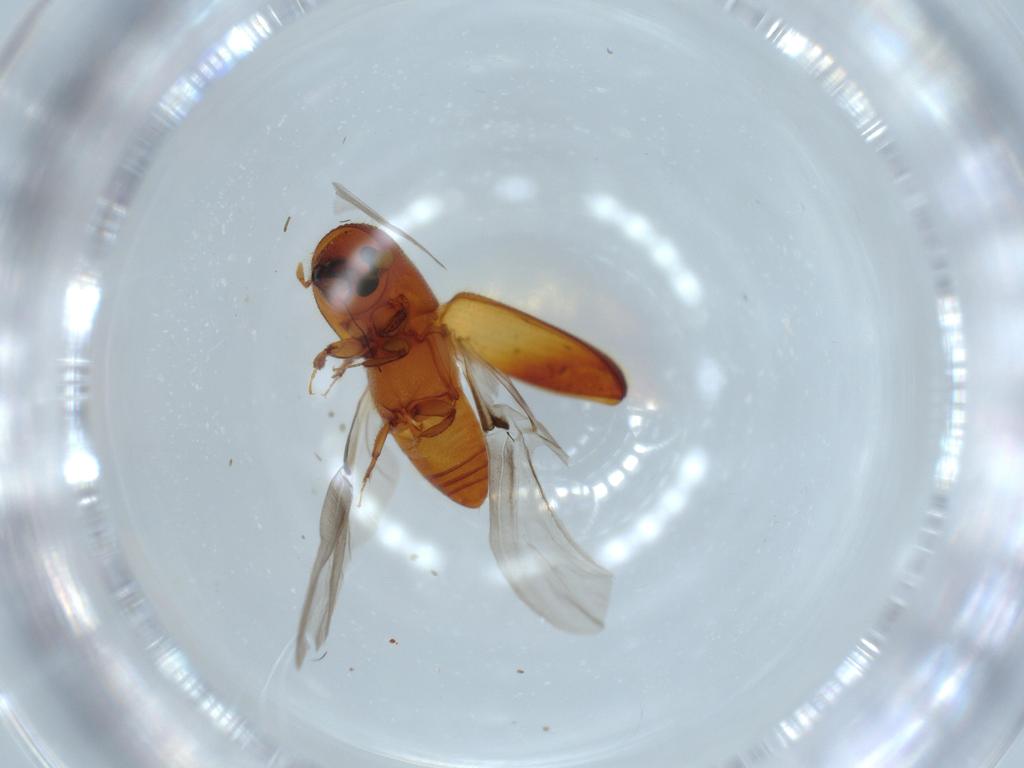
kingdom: Animalia
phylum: Arthropoda
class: Insecta
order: Coleoptera
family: Curculionidae
